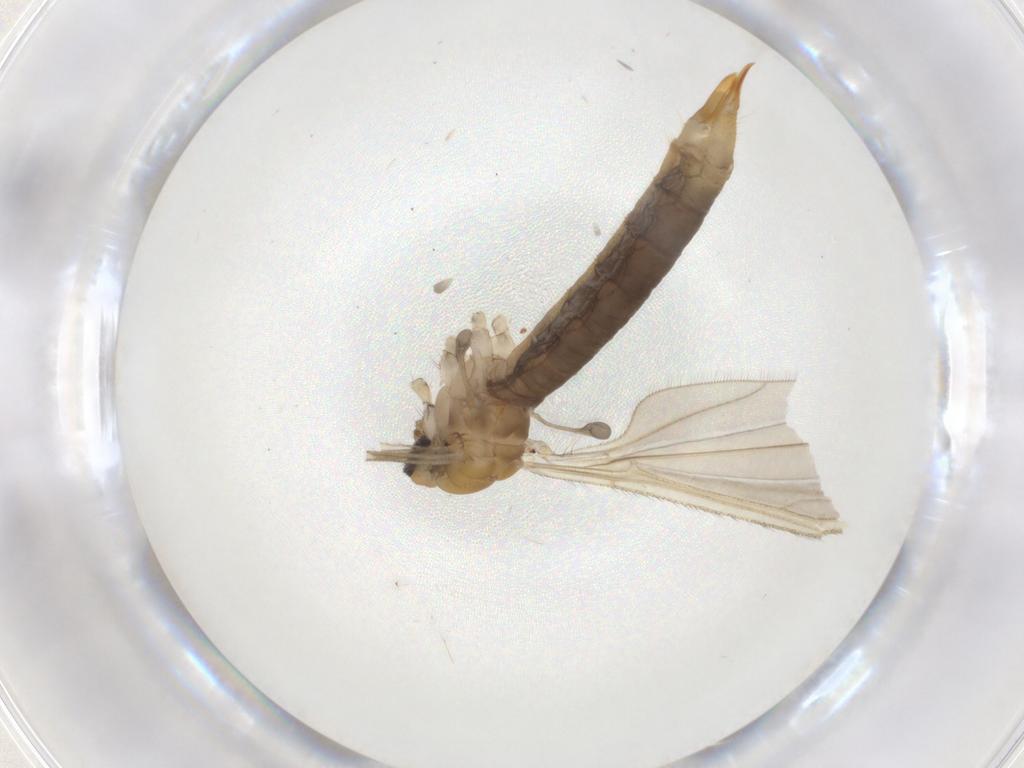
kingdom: Animalia
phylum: Arthropoda
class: Insecta
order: Diptera
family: Limoniidae
